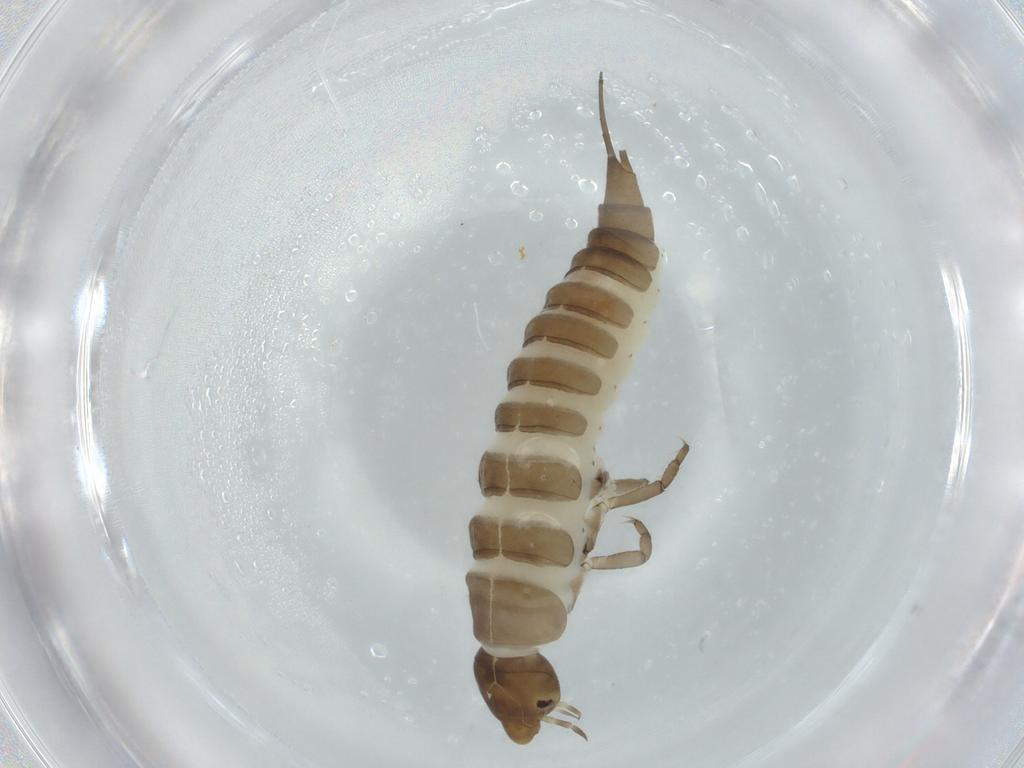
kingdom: Animalia
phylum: Arthropoda
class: Insecta
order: Coleoptera
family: Dytiscidae
